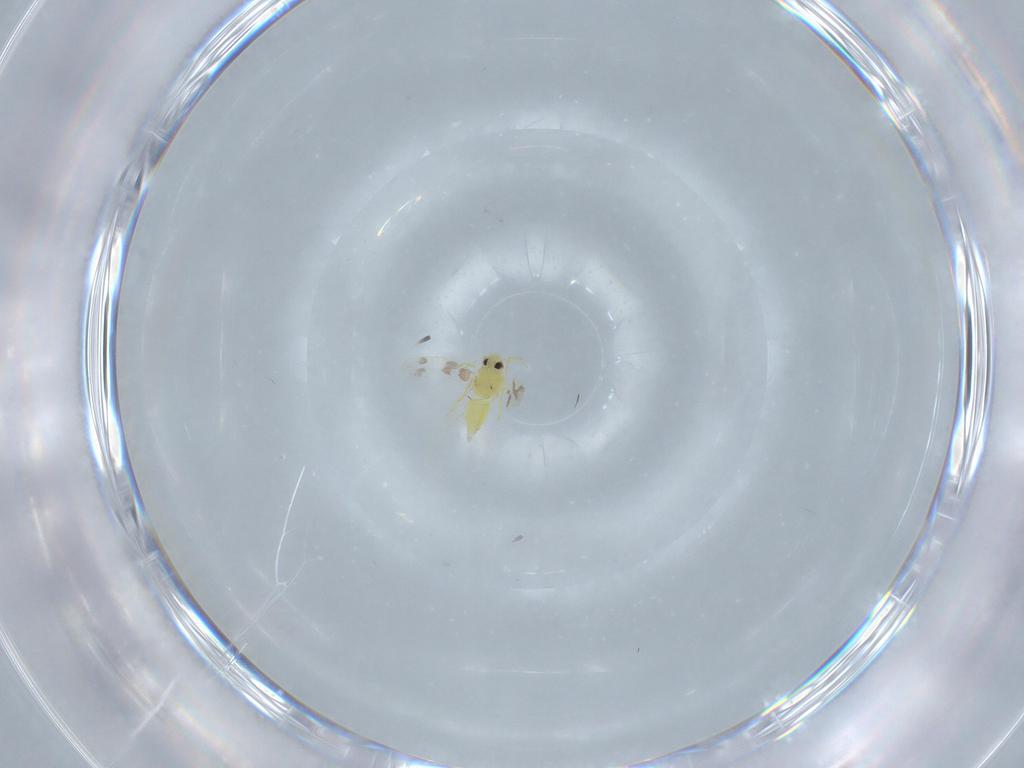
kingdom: Animalia
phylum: Arthropoda
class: Insecta
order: Hemiptera
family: Aleyrodidae
